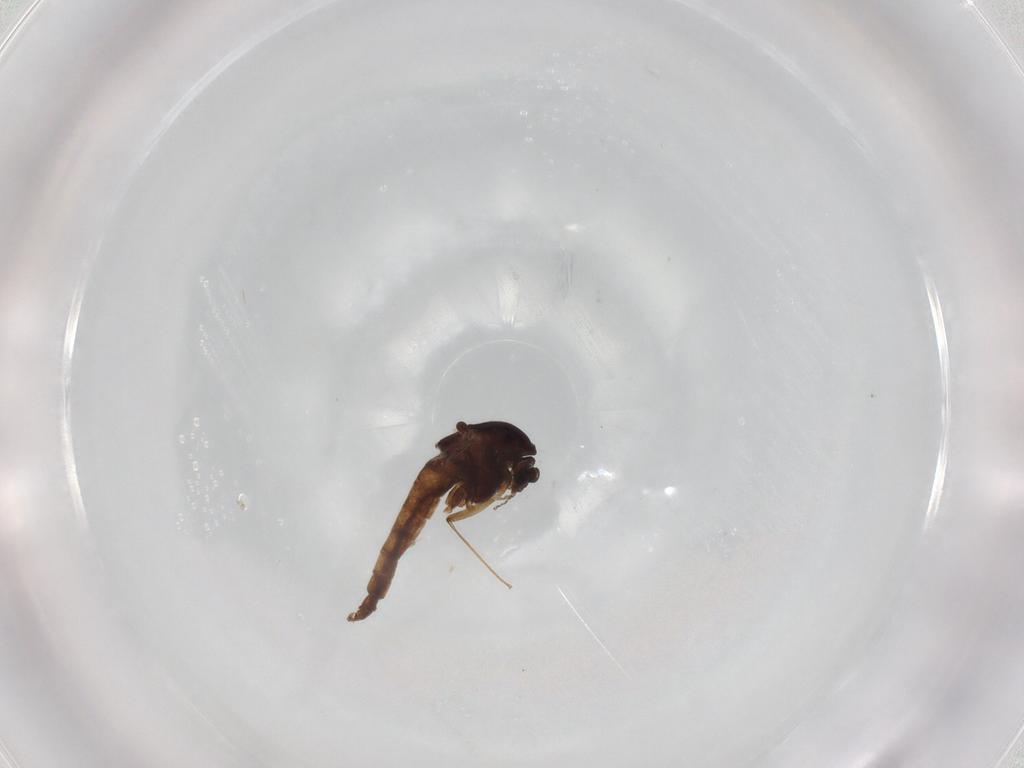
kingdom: Animalia
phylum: Arthropoda
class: Insecta
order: Diptera
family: Chironomidae
